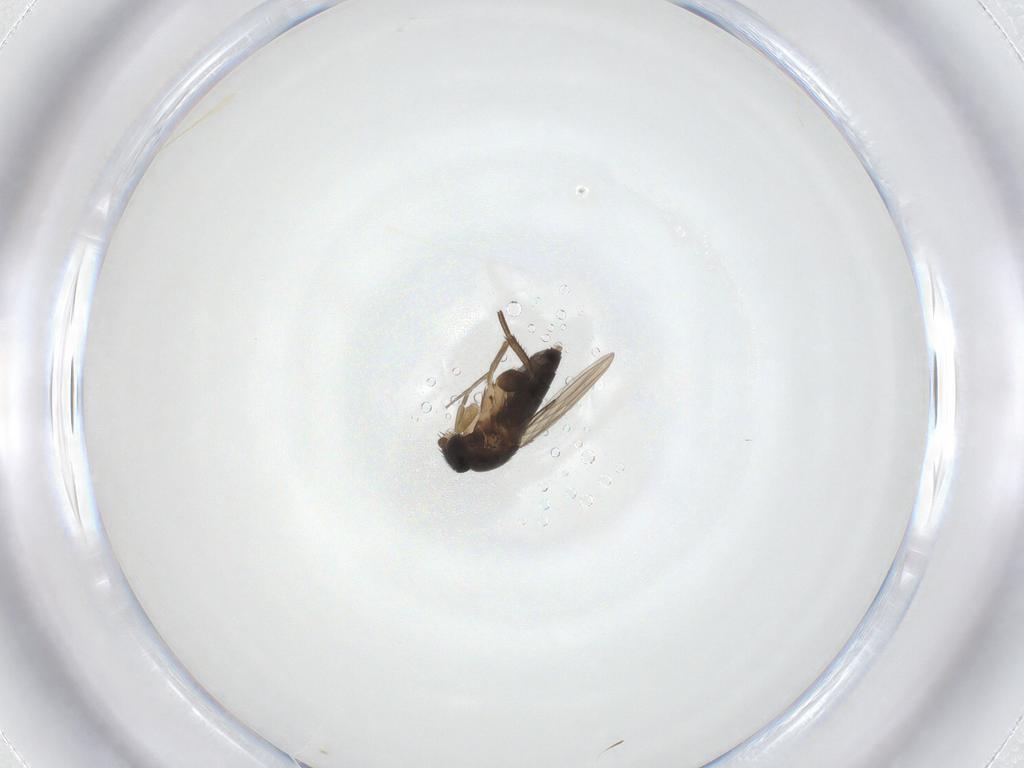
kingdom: Animalia
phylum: Arthropoda
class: Insecta
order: Diptera
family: Phoridae
